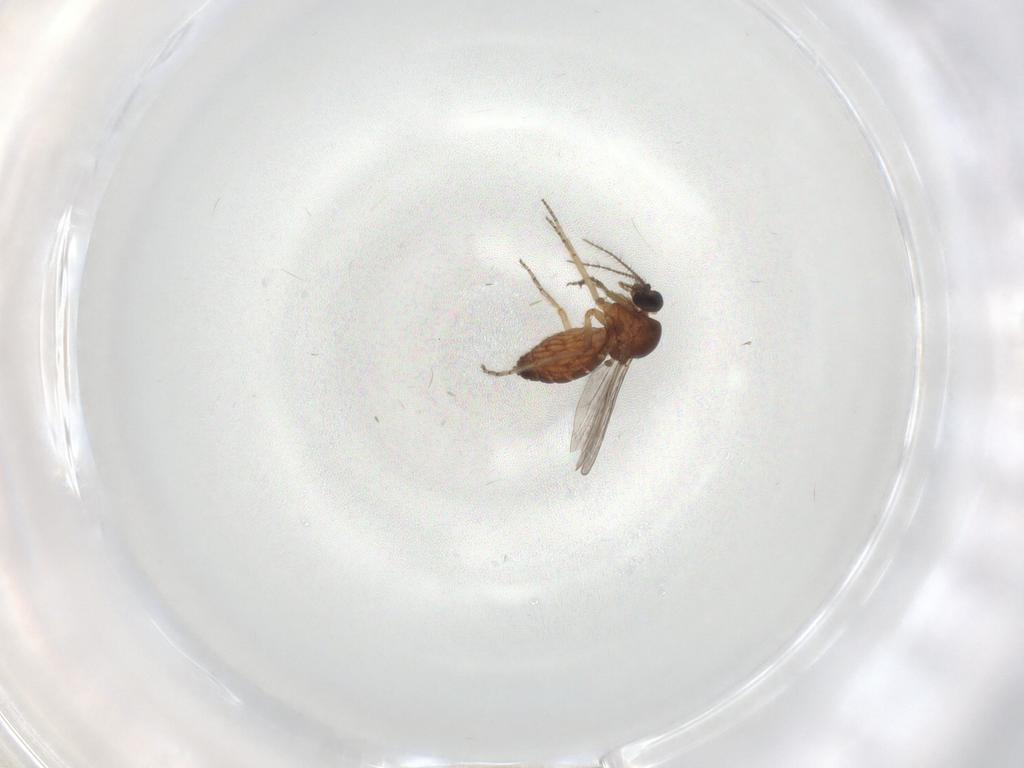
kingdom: Animalia
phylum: Arthropoda
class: Insecta
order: Diptera
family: Ceratopogonidae
